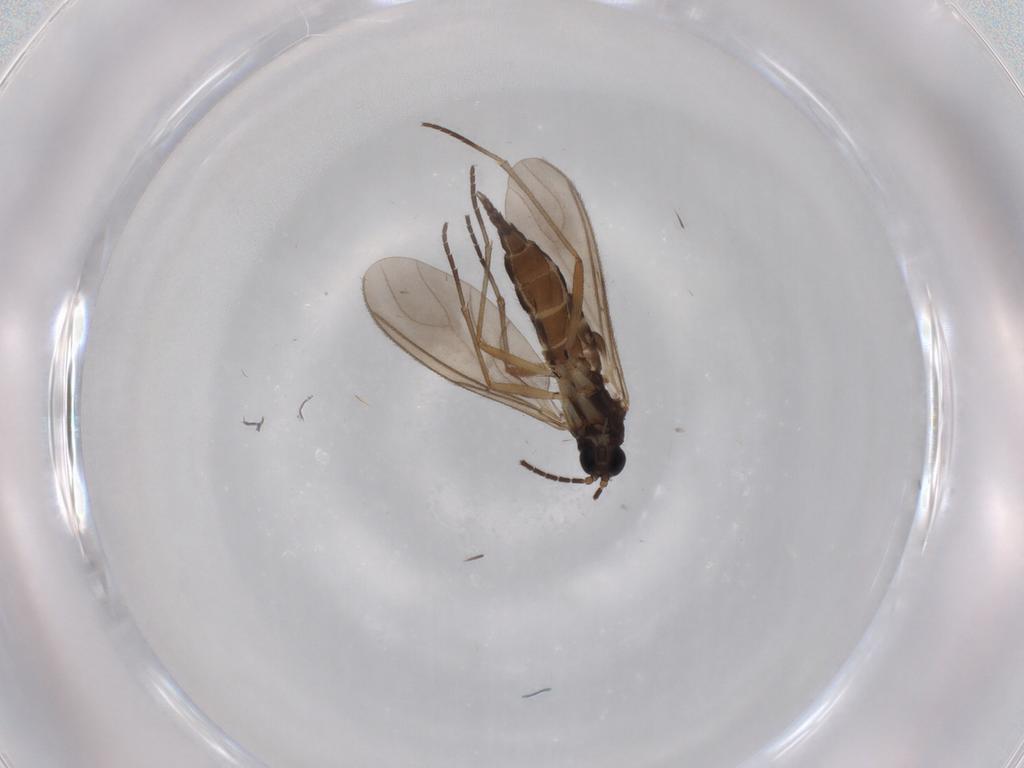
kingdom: Animalia
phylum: Arthropoda
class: Insecta
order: Diptera
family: Sciaridae
